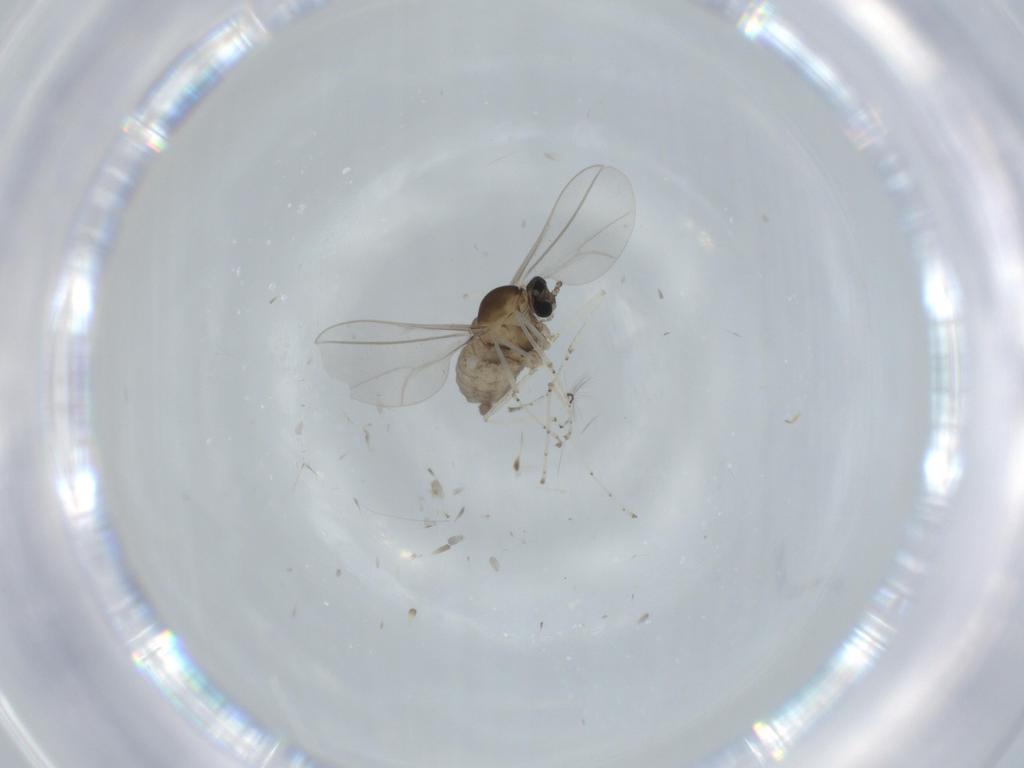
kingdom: Animalia
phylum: Arthropoda
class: Insecta
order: Diptera
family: Cecidomyiidae
